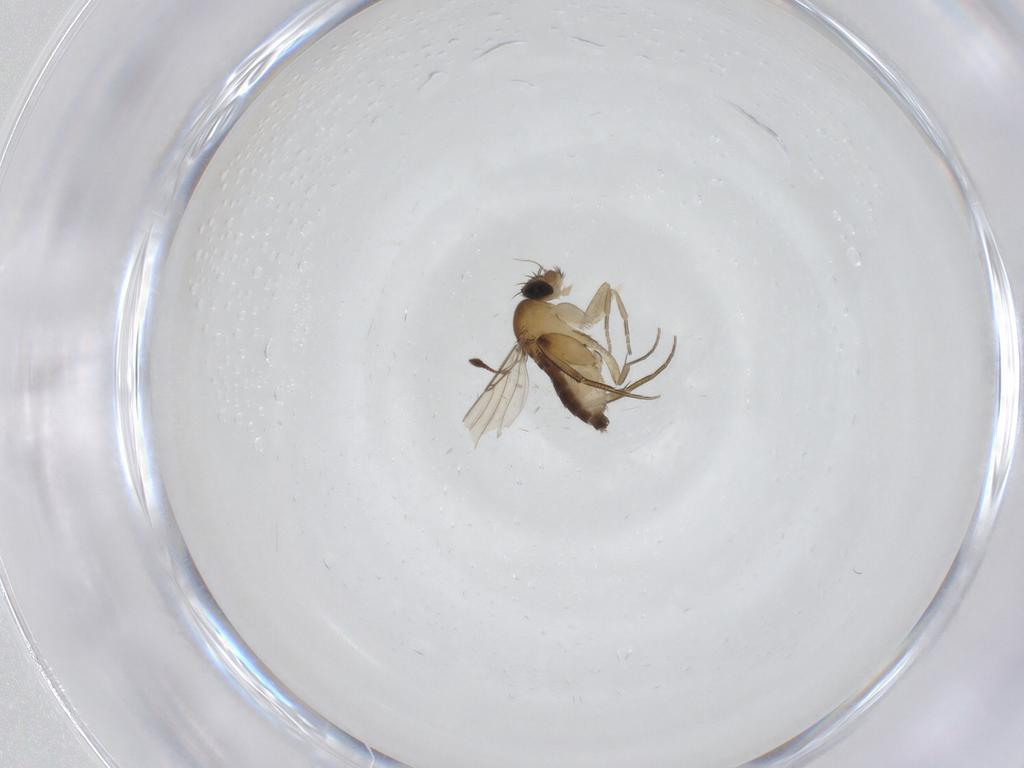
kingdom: Animalia
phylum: Arthropoda
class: Insecta
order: Diptera
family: Phoridae
